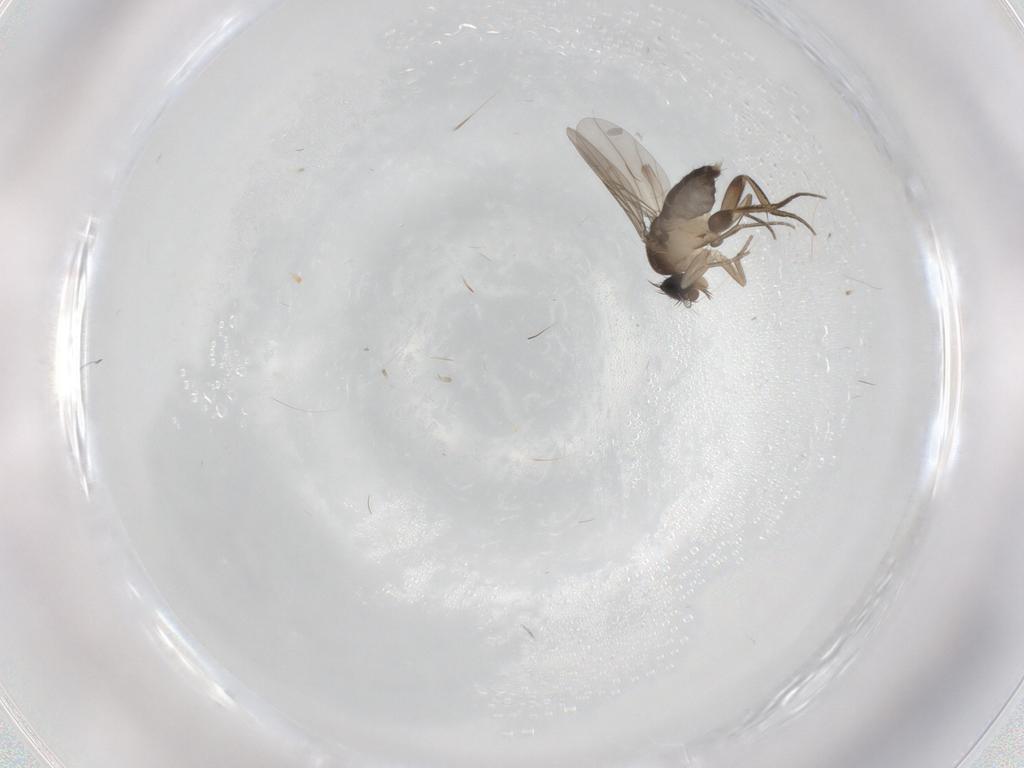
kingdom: Animalia
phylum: Arthropoda
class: Insecta
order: Diptera
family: Phoridae
